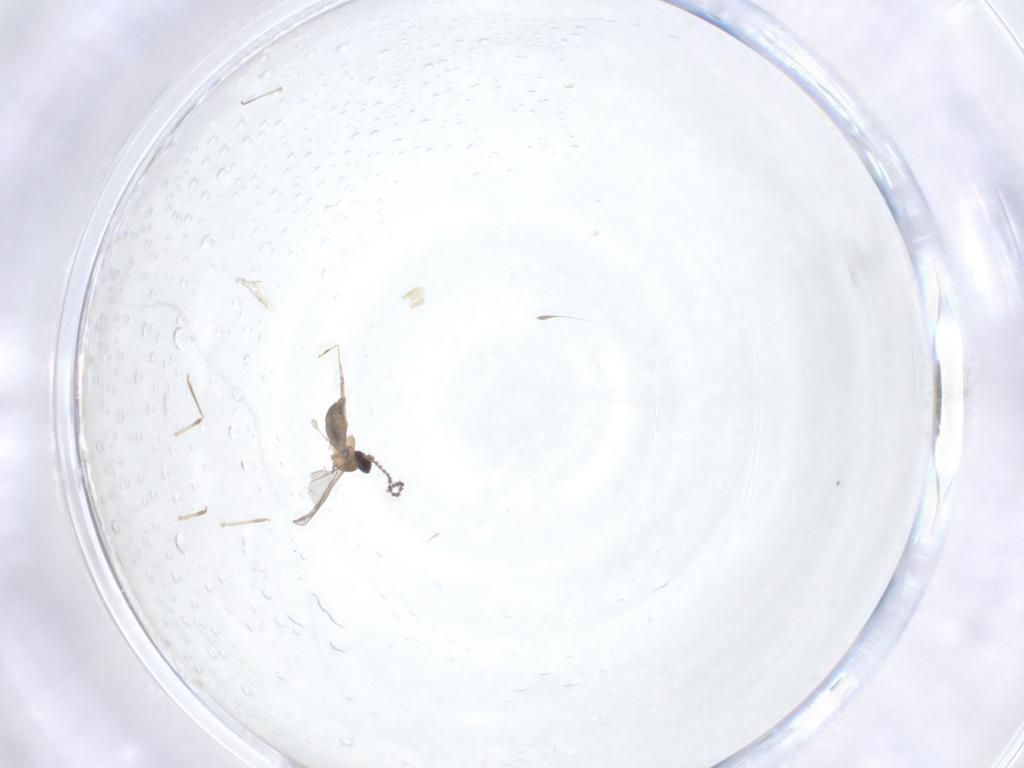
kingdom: Animalia
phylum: Arthropoda
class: Insecta
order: Diptera
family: Cecidomyiidae
